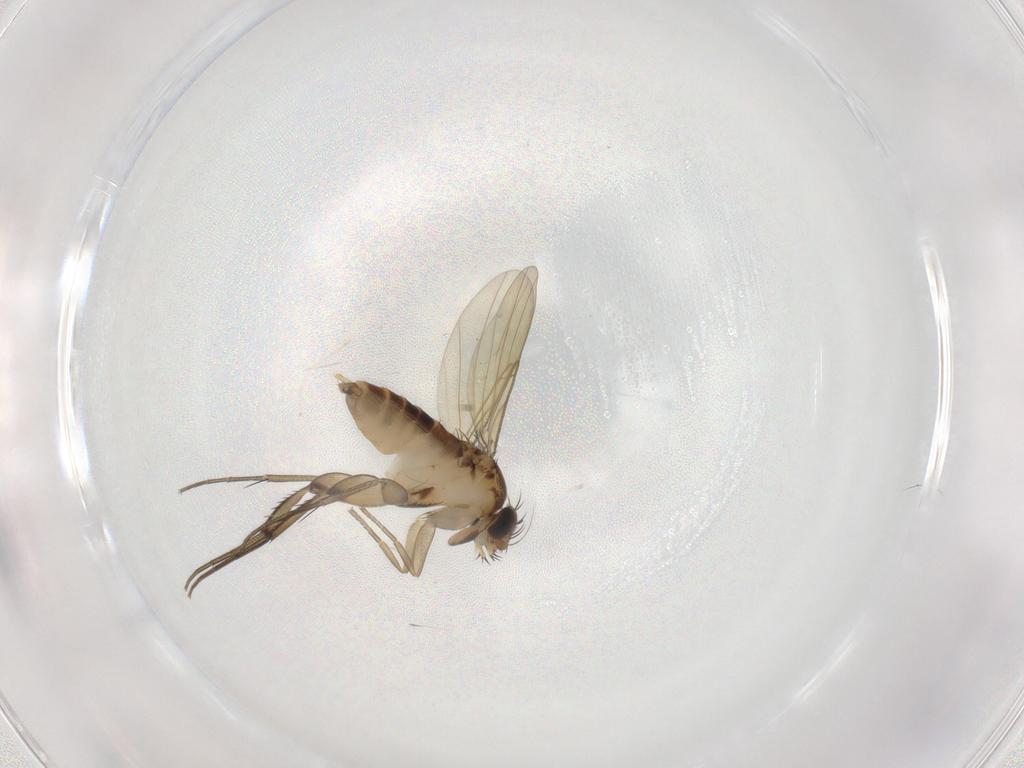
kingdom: Animalia
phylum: Arthropoda
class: Insecta
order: Diptera
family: Phoridae
